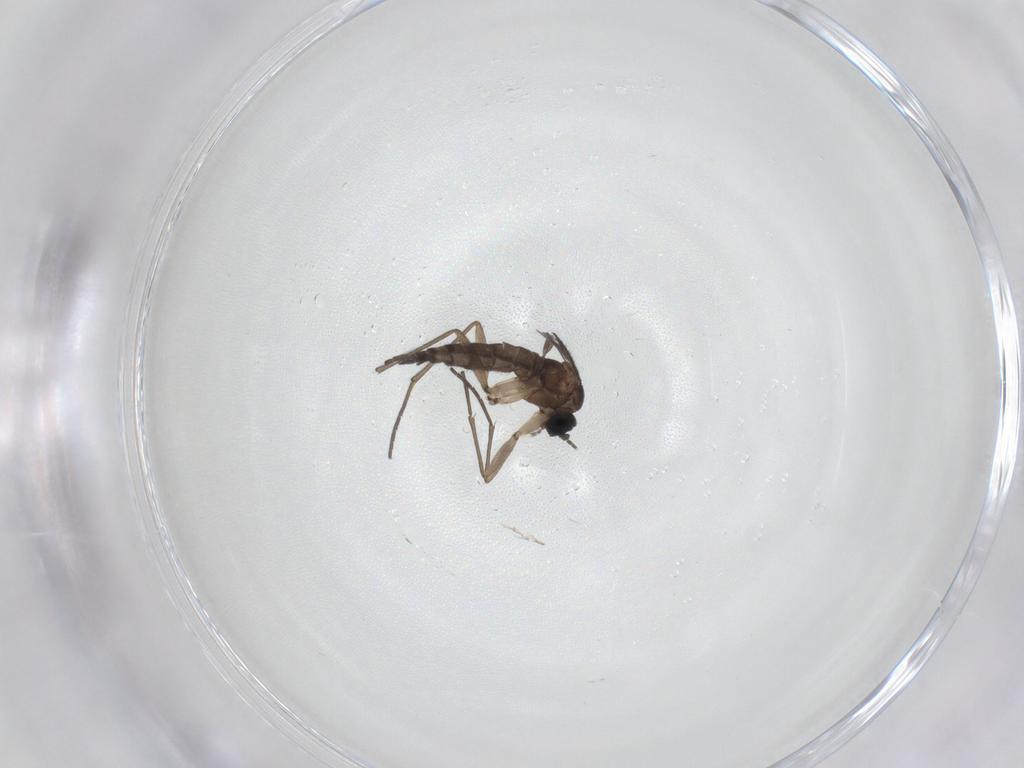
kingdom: Animalia
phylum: Arthropoda
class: Insecta
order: Diptera
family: Sciaridae
